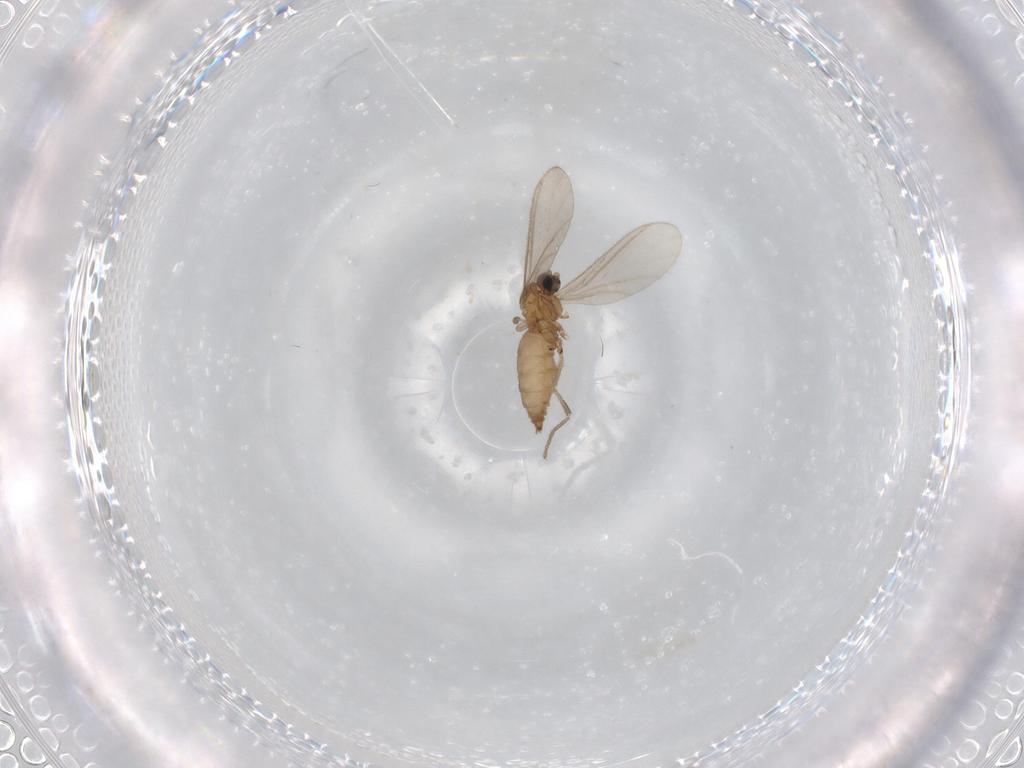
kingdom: Animalia
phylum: Arthropoda
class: Insecta
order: Diptera
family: Sciaridae
